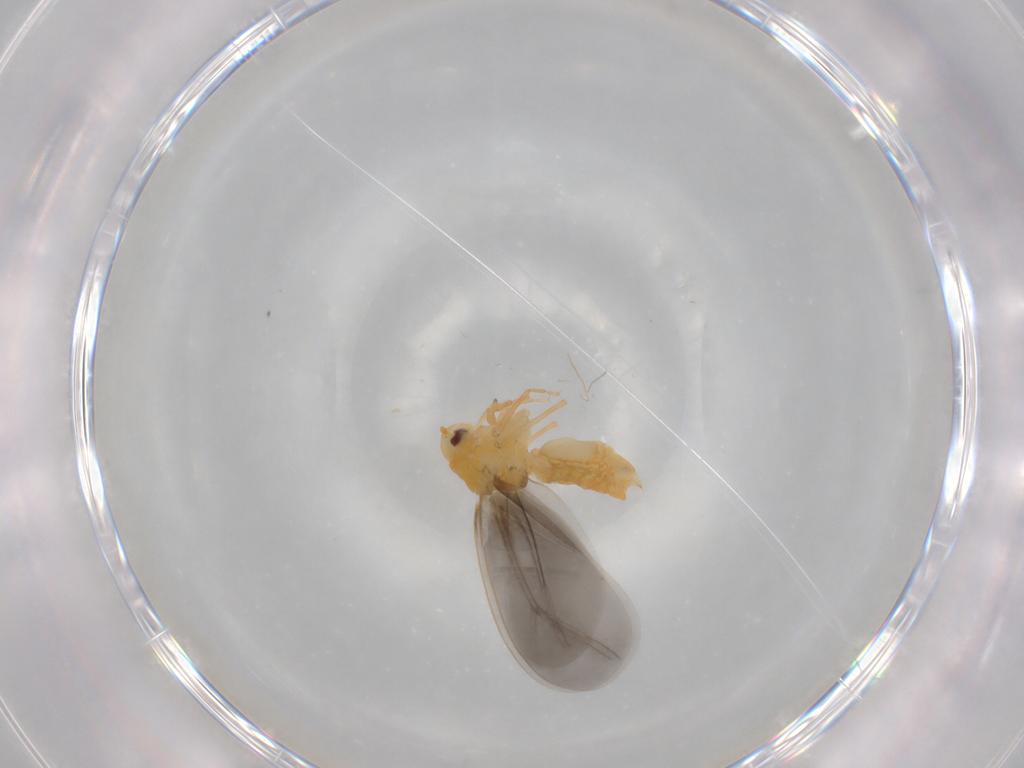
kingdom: Animalia
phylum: Arthropoda
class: Insecta
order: Hemiptera
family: Aleyrodidae
